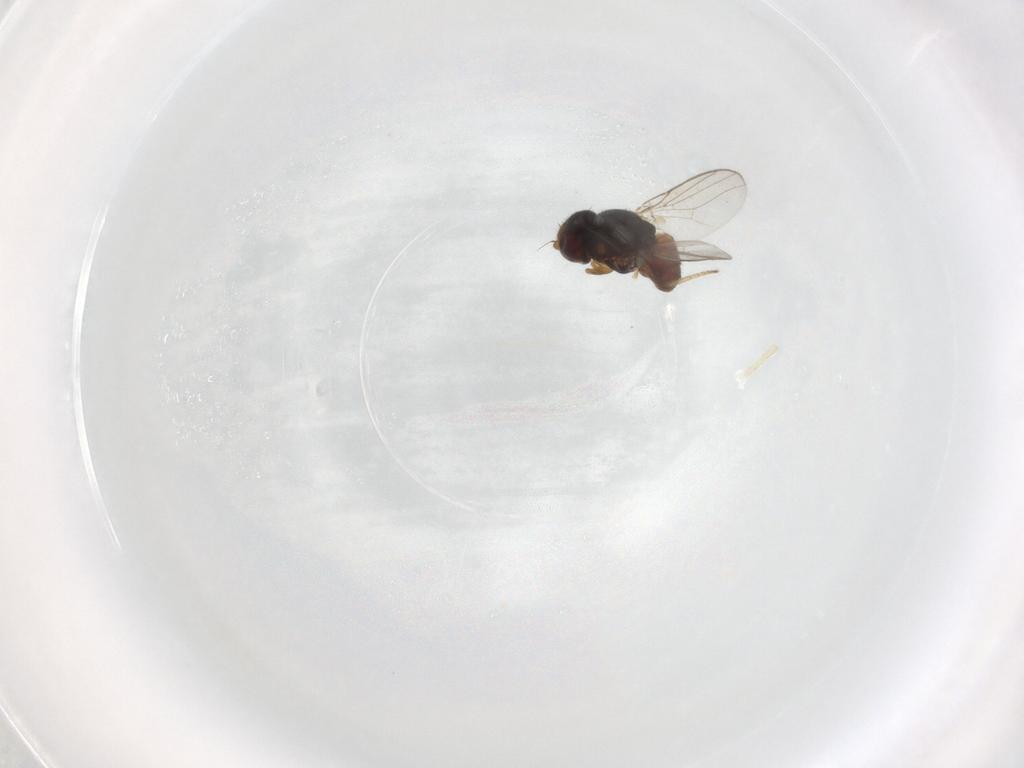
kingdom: Animalia
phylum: Arthropoda
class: Insecta
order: Diptera
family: Chloropidae
